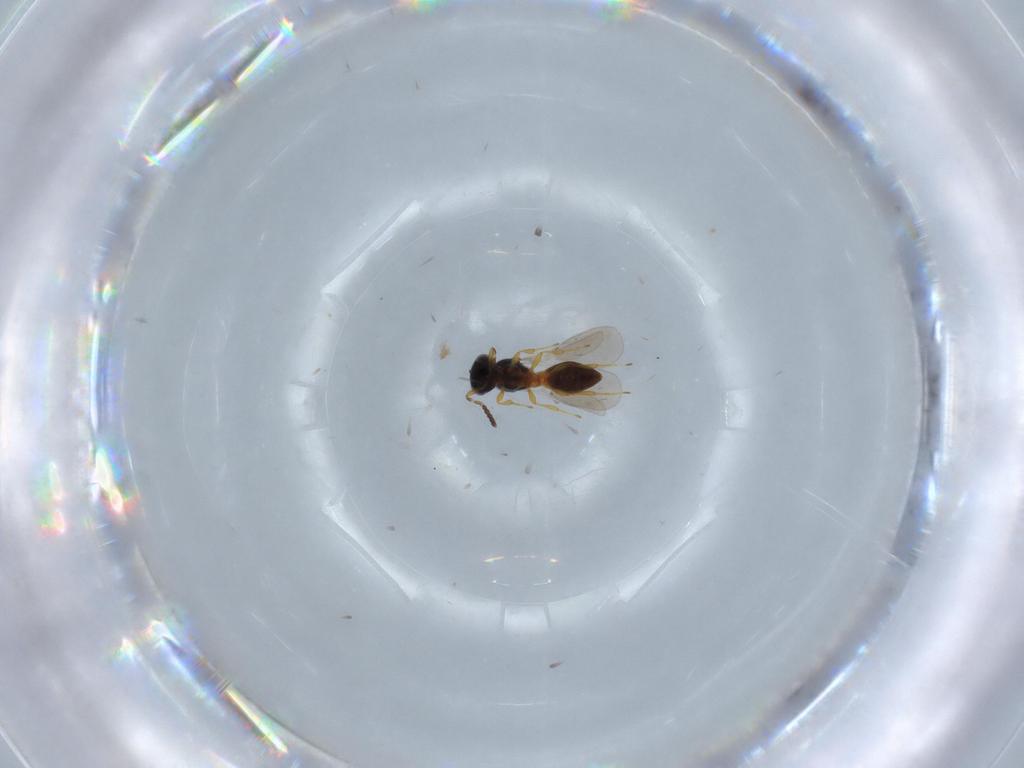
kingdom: Animalia
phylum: Arthropoda
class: Insecta
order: Hymenoptera
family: Platygastridae
